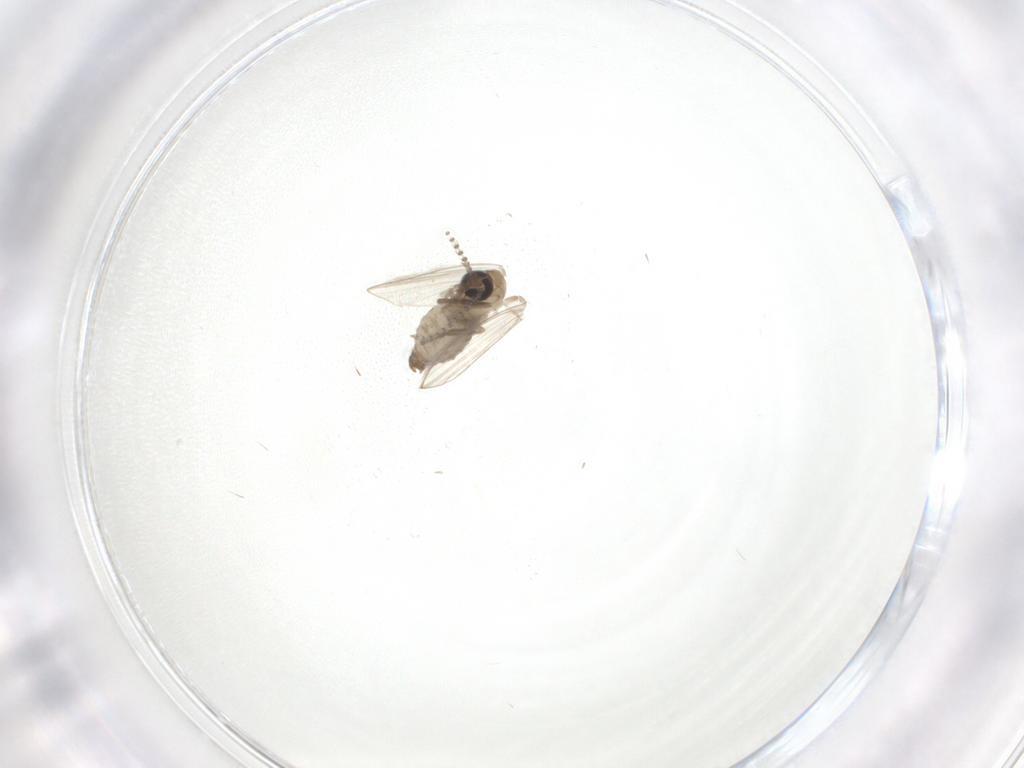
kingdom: Animalia
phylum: Arthropoda
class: Insecta
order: Diptera
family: Psychodidae
